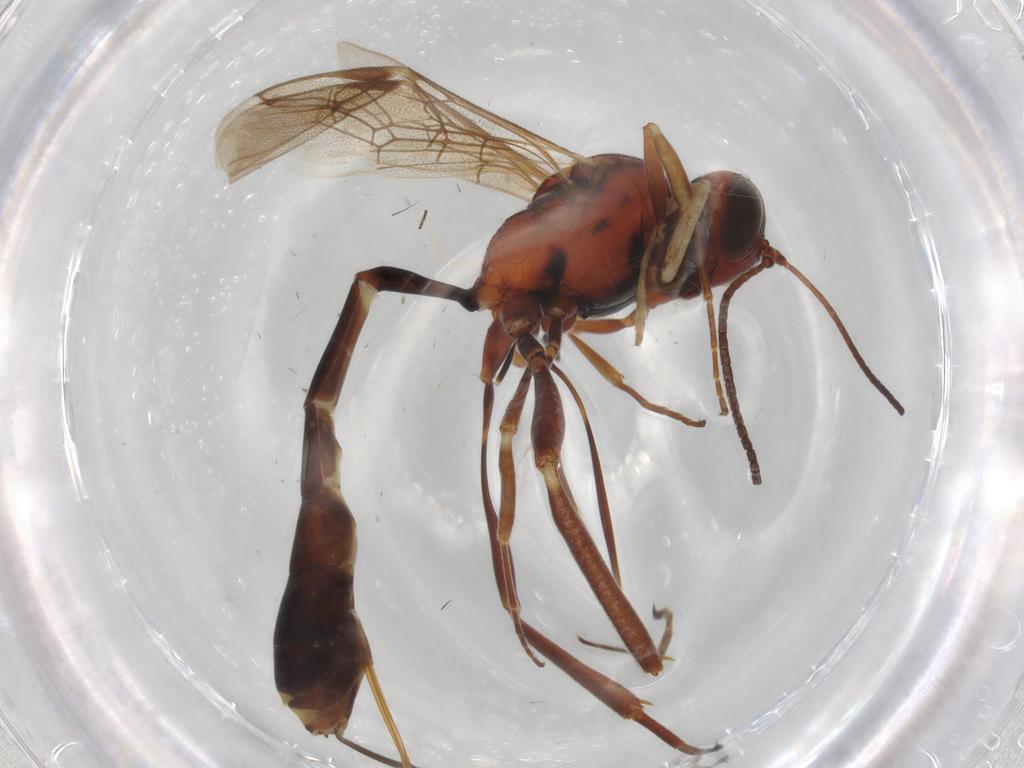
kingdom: Animalia
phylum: Arthropoda
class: Insecta
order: Hymenoptera
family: Ichneumonidae
